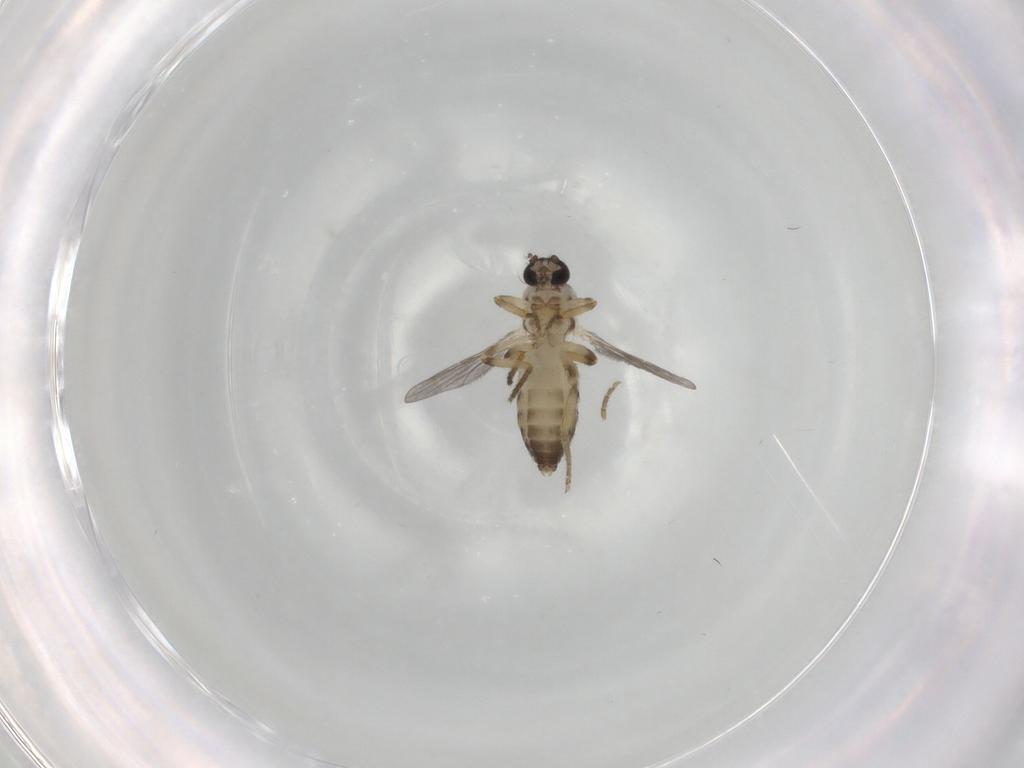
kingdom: Animalia
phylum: Arthropoda
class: Insecta
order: Diptera
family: Ceratopogonidae
